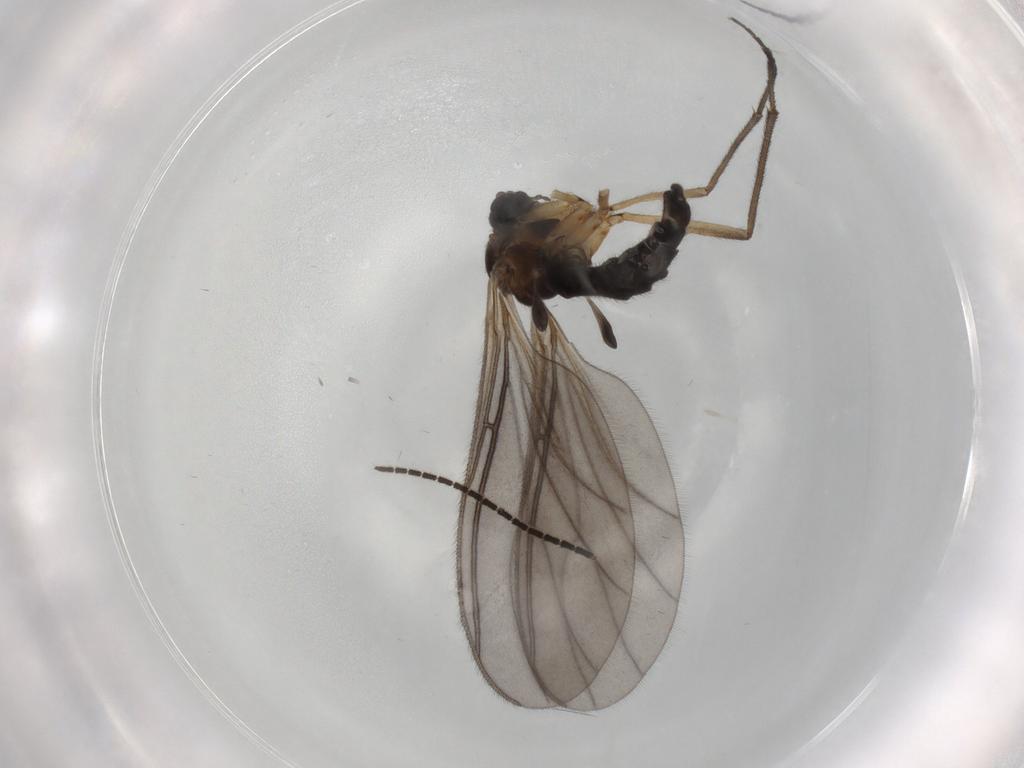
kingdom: Animalia
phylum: Arthropoda
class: Insecta
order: Diptera
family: Sciaridae
